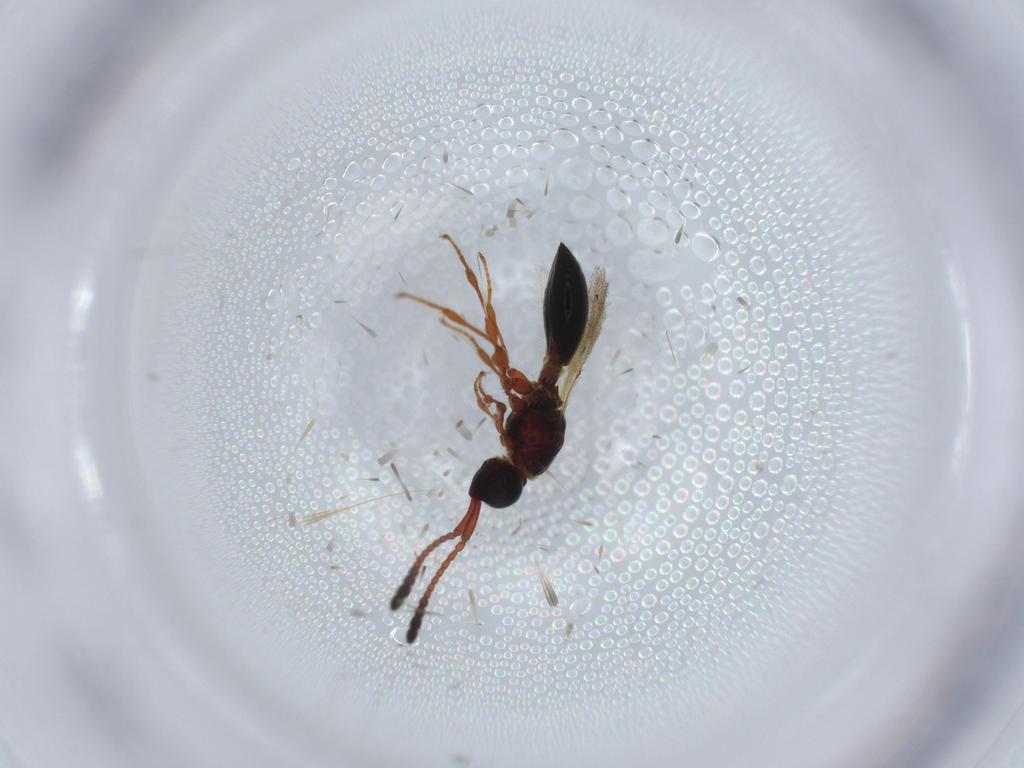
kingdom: Animalia
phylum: Arthropoda
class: Insecta
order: Hymenoptera
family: Diapriidae
